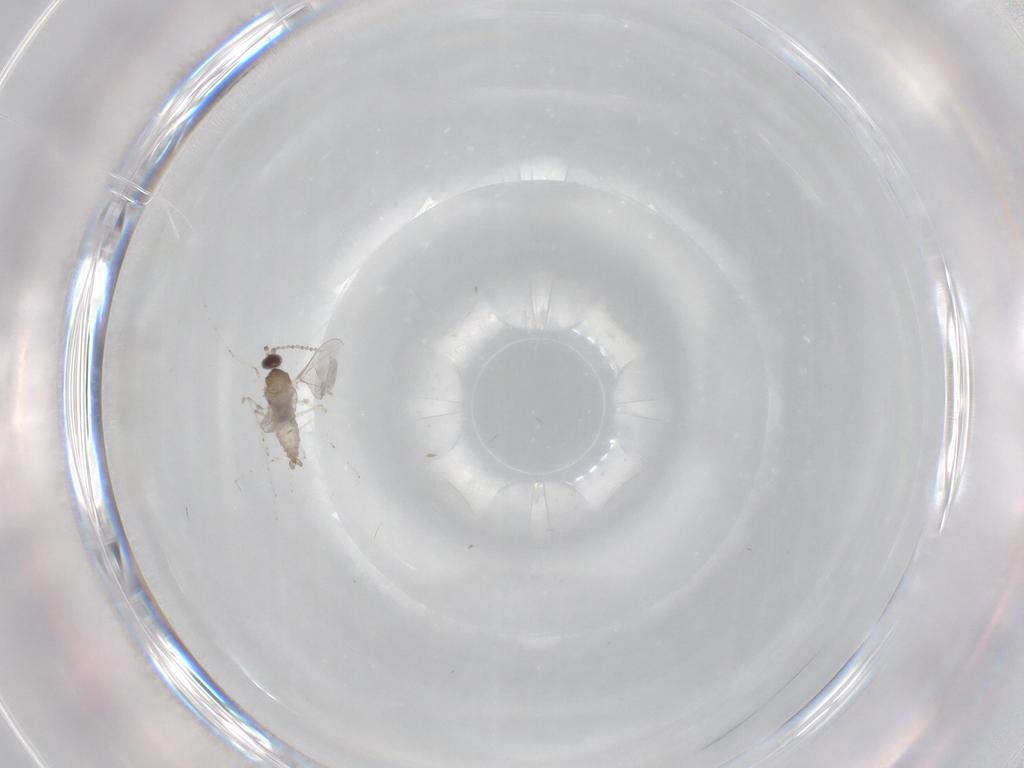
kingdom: Animalia
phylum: Arthropoda
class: Insecta
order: Diptera
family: Cecidomyiidae
